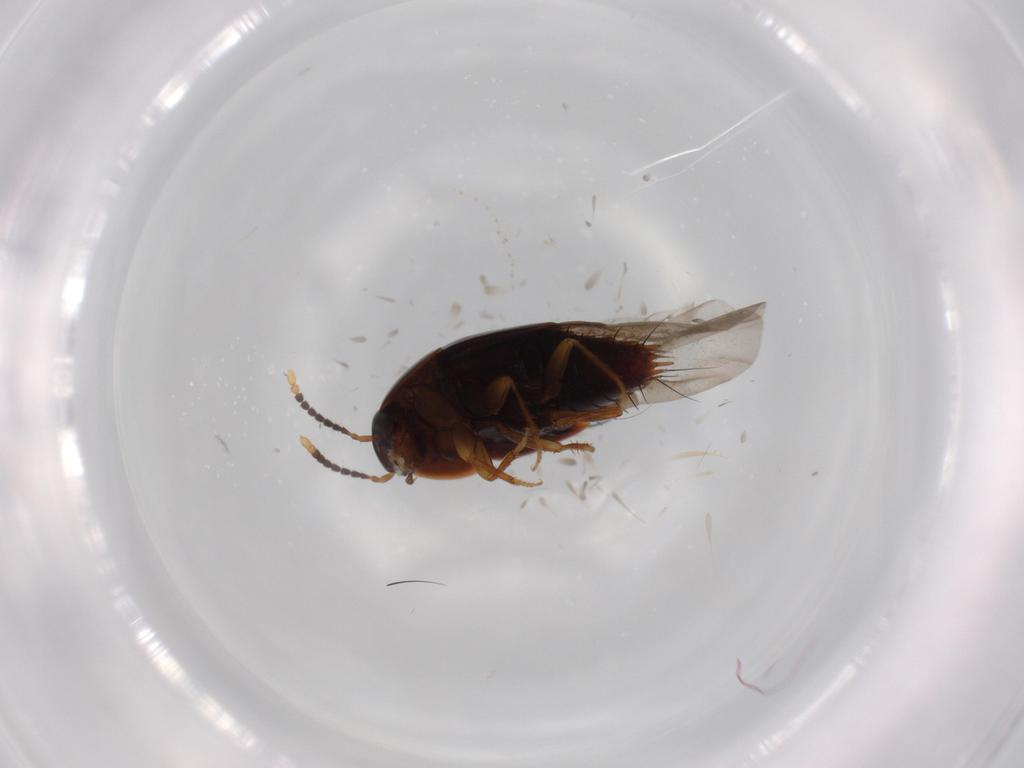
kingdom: Animalia
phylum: Arthropoda
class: Insecta
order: Coleoptera
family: Staphylinidae
